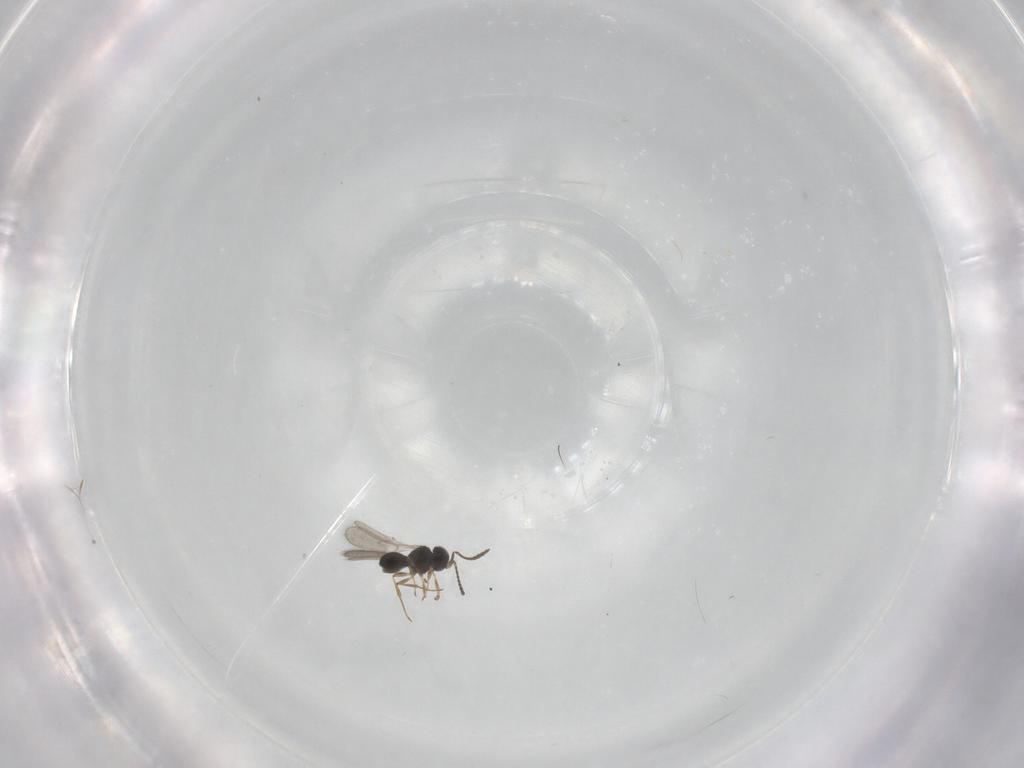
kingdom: Animalia
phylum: Arthropoda
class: Insecta
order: Hymenoptera
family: Scelionidae
